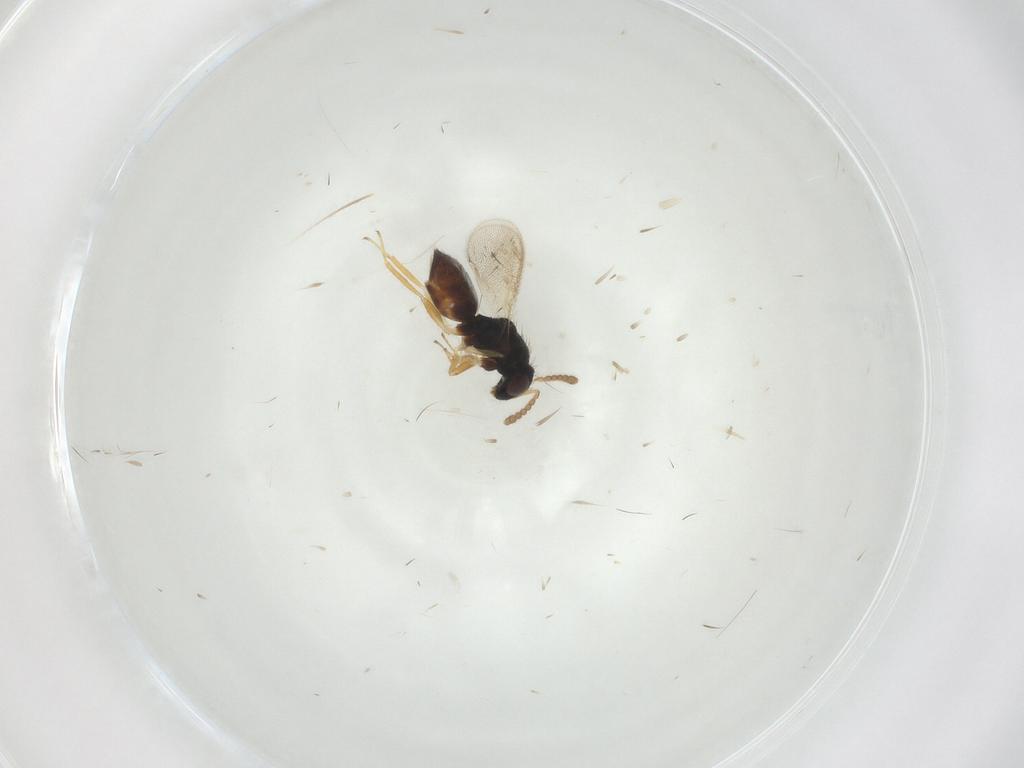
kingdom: Animalia
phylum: Arthropoda
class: Insecta
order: Hymenoptera
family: Eulophidae
